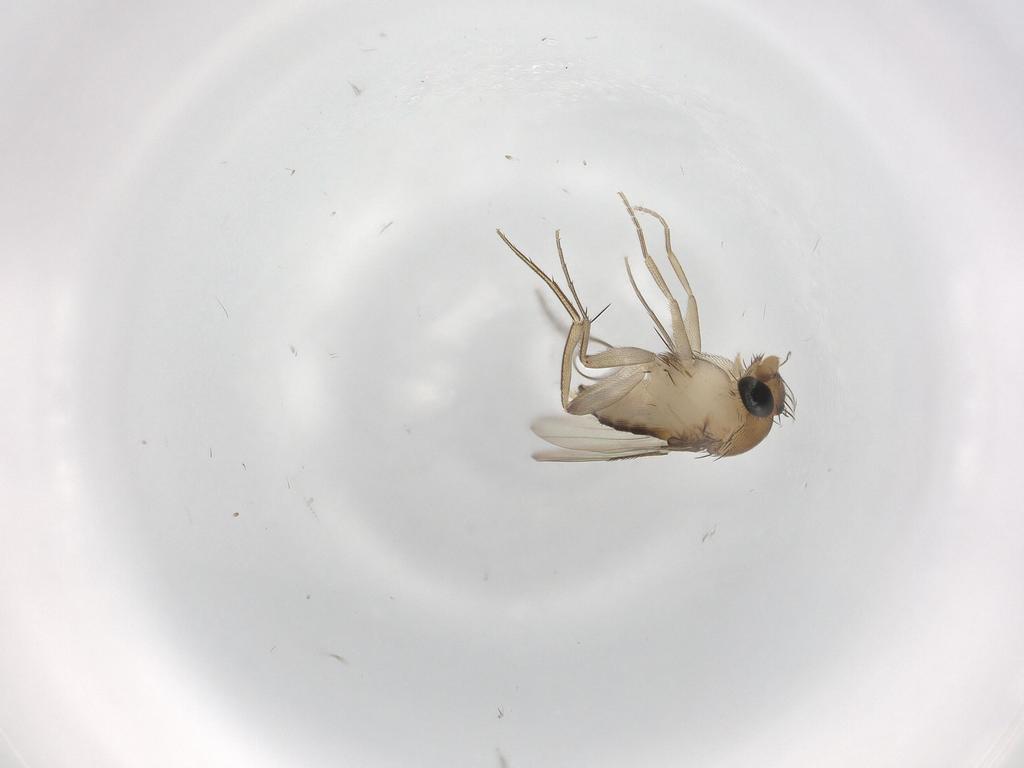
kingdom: Animalia
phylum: Arthropoda
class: Insecta
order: Diptera
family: Phoridae
